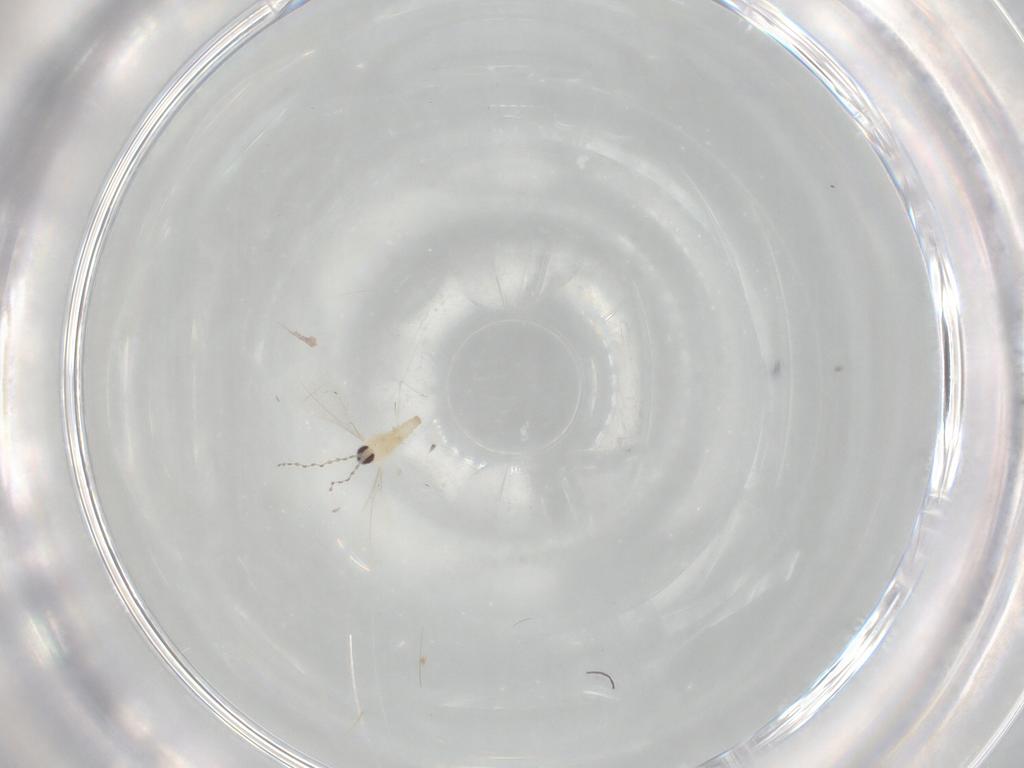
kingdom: Animalia
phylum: Arthropoda
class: Insecta
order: Diptera
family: Cecidomyiidae
